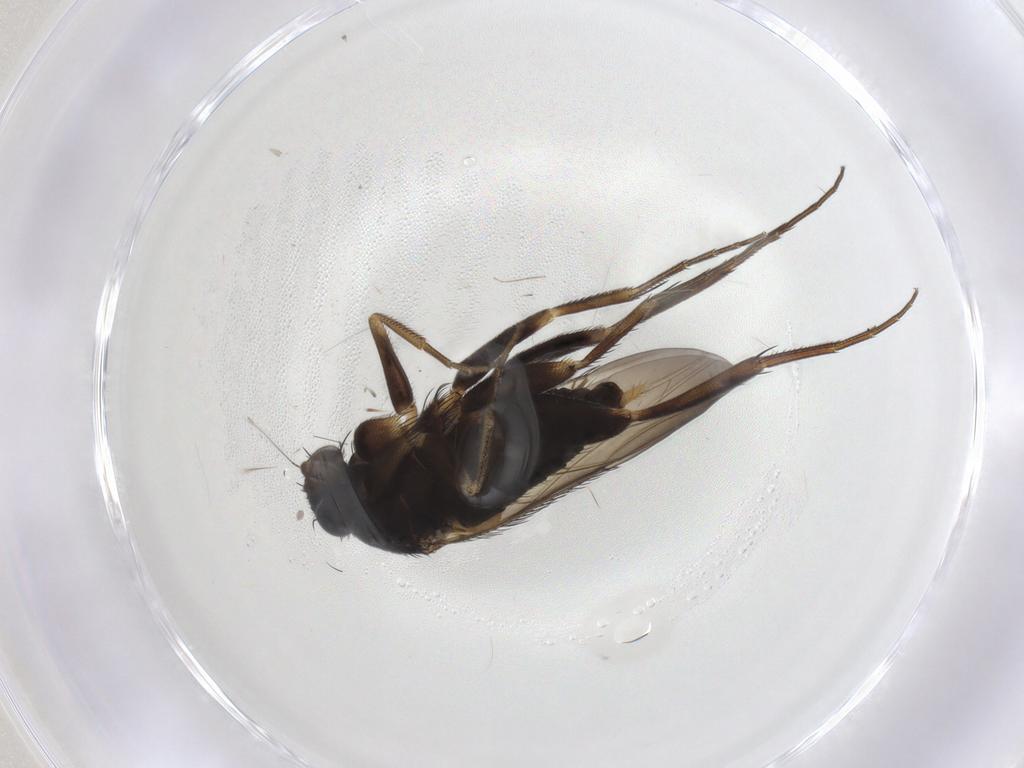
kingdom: Animalia
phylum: Arthropoda
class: Insecta
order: Diptera
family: Phoridae
